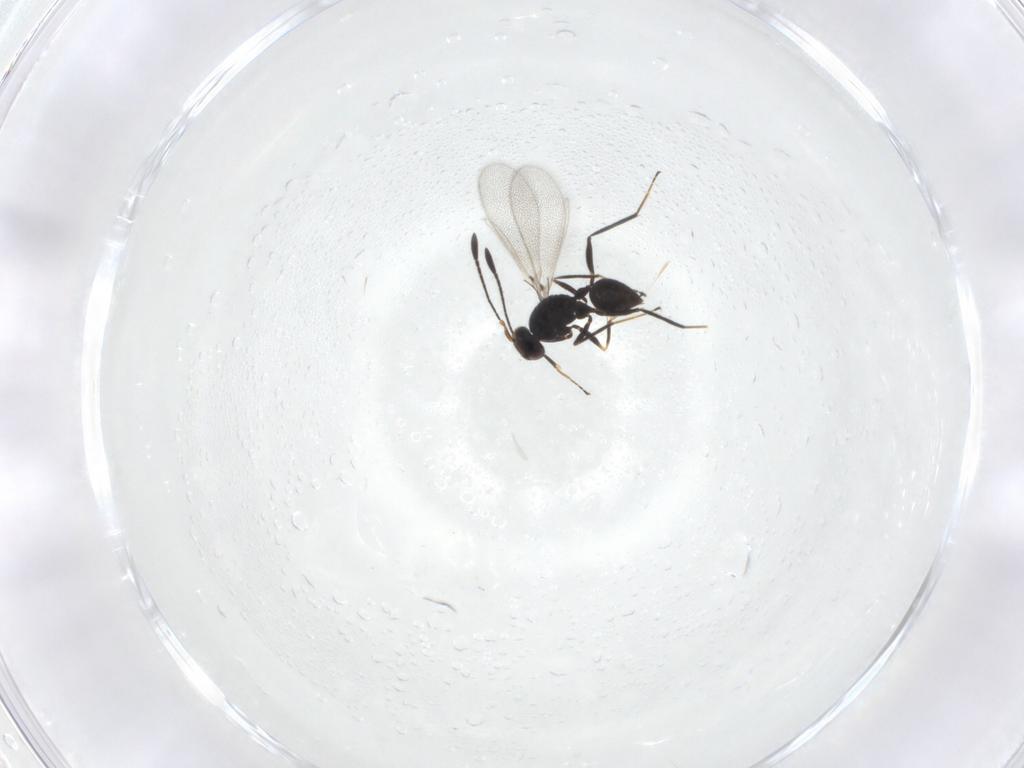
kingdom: Animalia
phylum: Arthropoda
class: Insecta
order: Hymenoptera
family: Mymaridae
